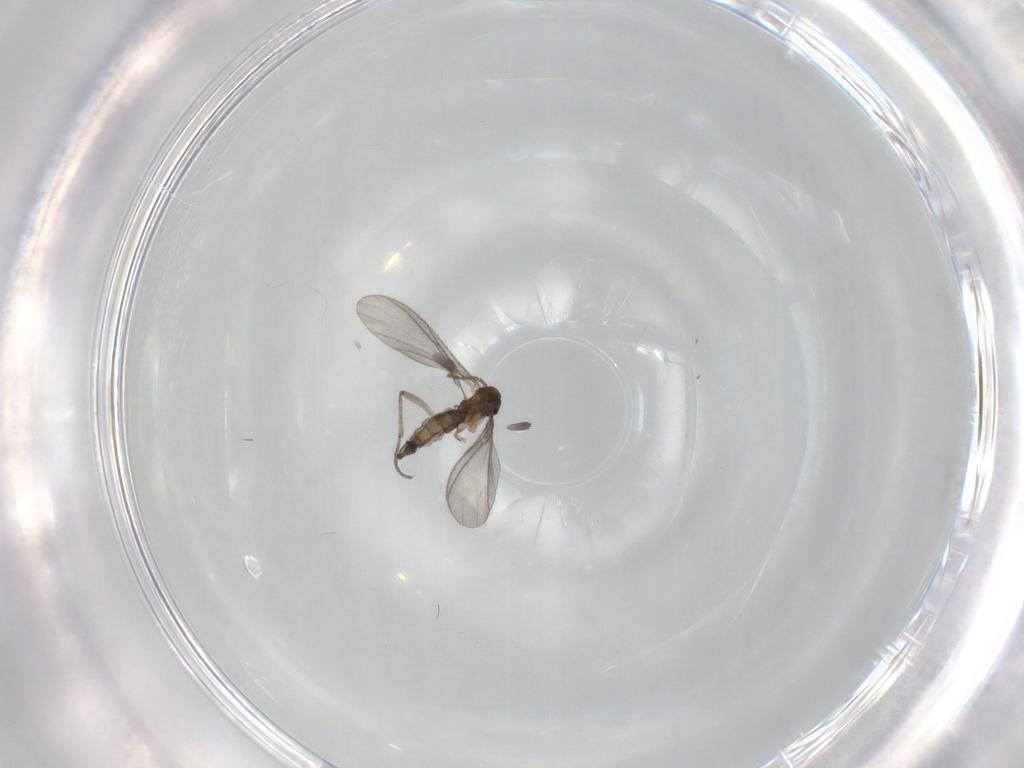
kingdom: Animalia
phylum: Arthropoda
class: Insecta
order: Diptera
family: Sciaridae
